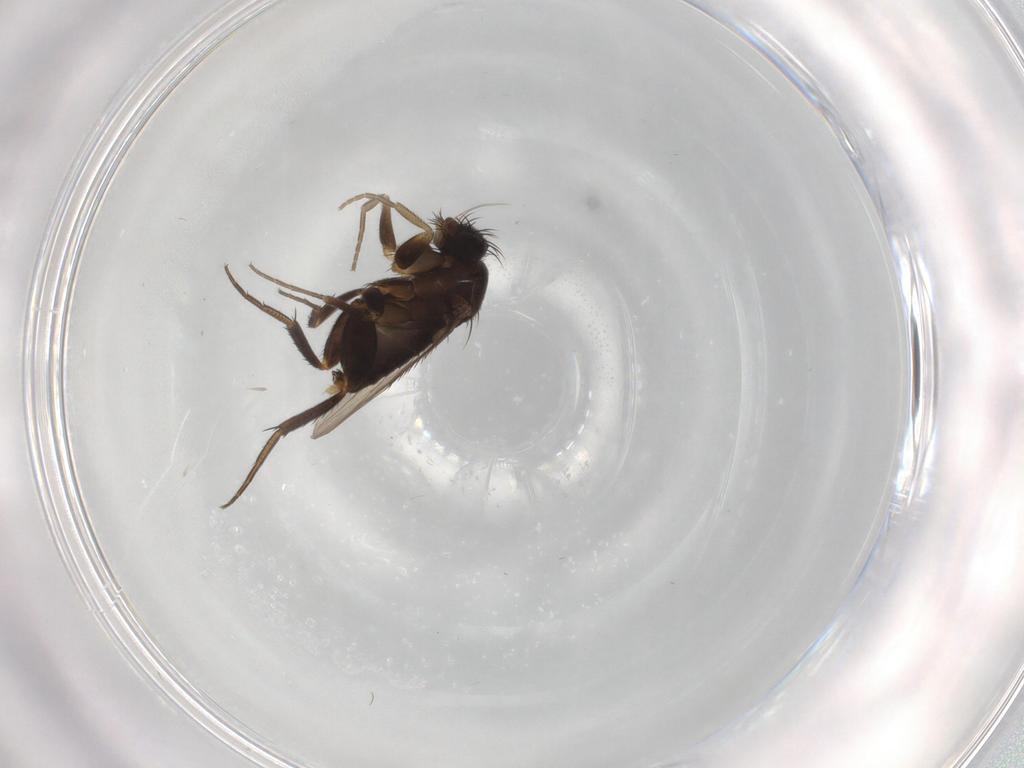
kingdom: Animalia
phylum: Arthropoda
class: Insecta
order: Diptera
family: Phoridae
